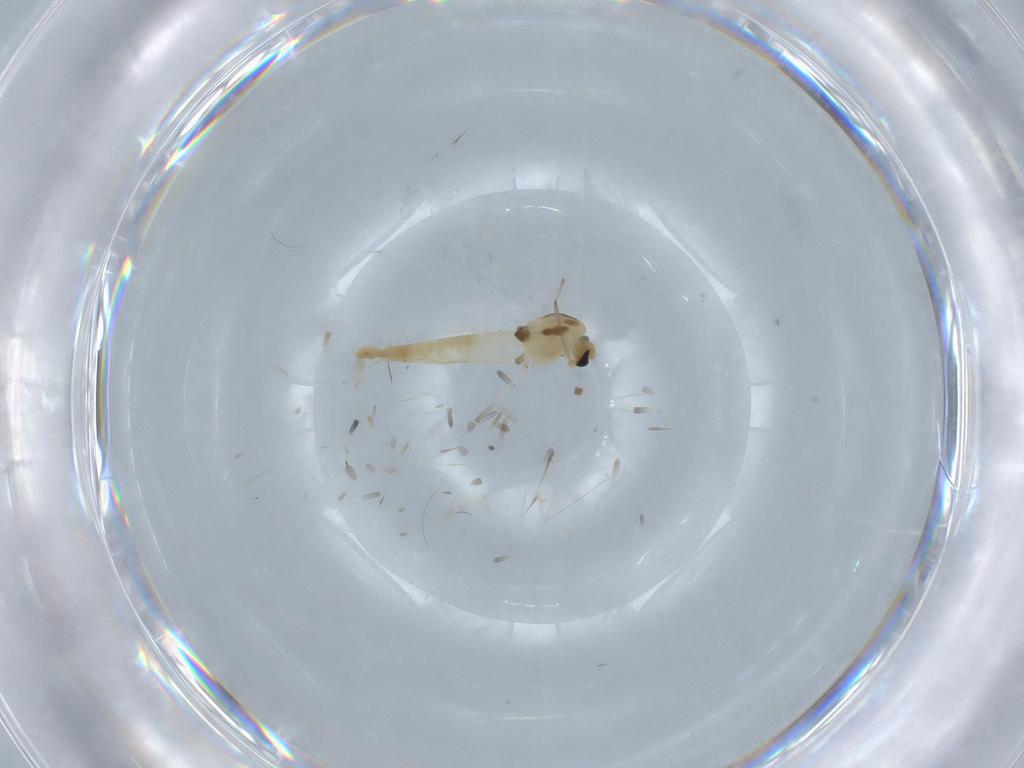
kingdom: Animalia
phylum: Arthropoda
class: Insecta
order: Diptera
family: Chironomidae
